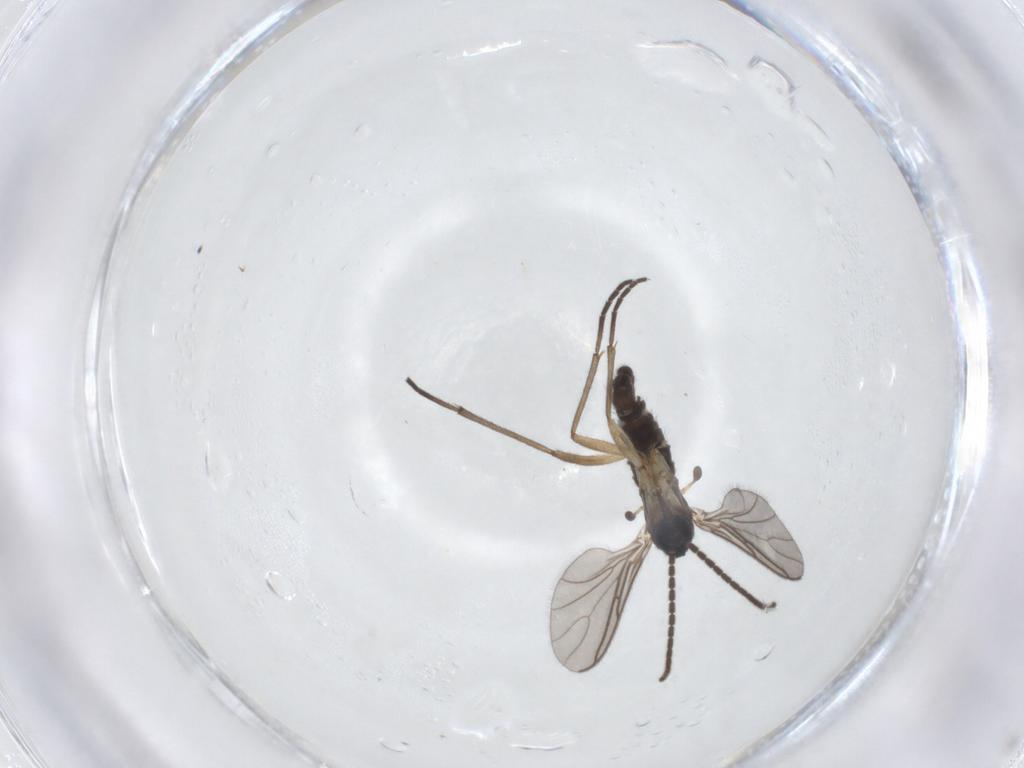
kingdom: Animalia
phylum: Arthropoda
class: Insecta
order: Diptera
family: Sciaridae
